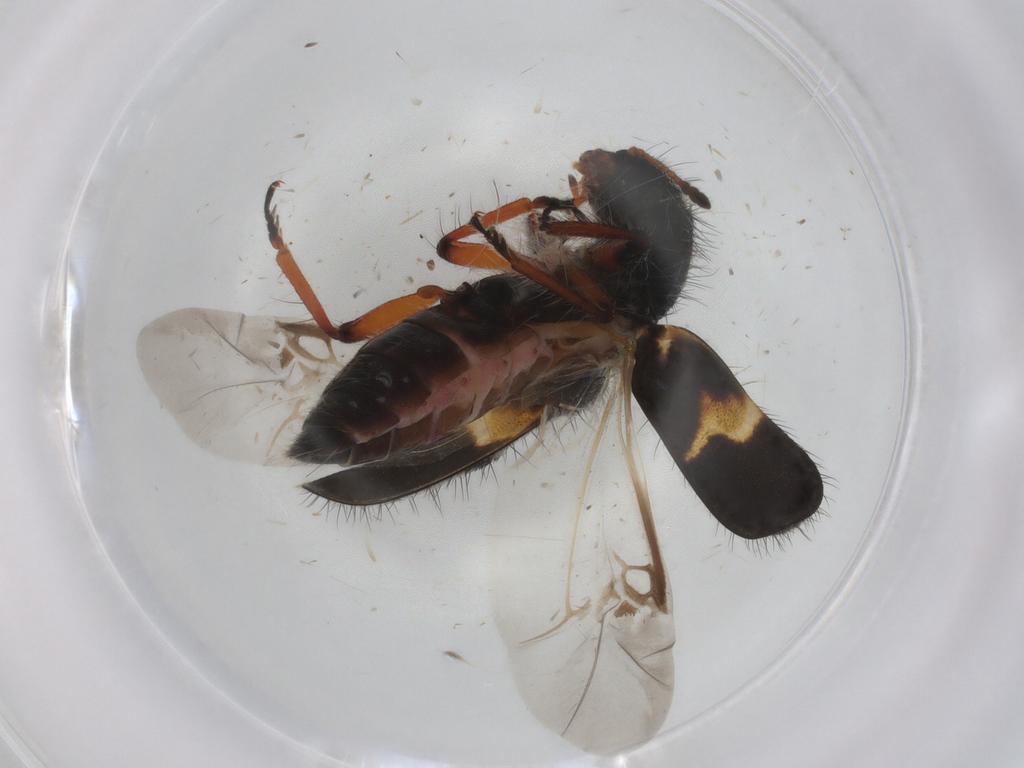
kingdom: Animalia
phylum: Arthropoda
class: Insecta
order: Coleoptera
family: Cleridae
